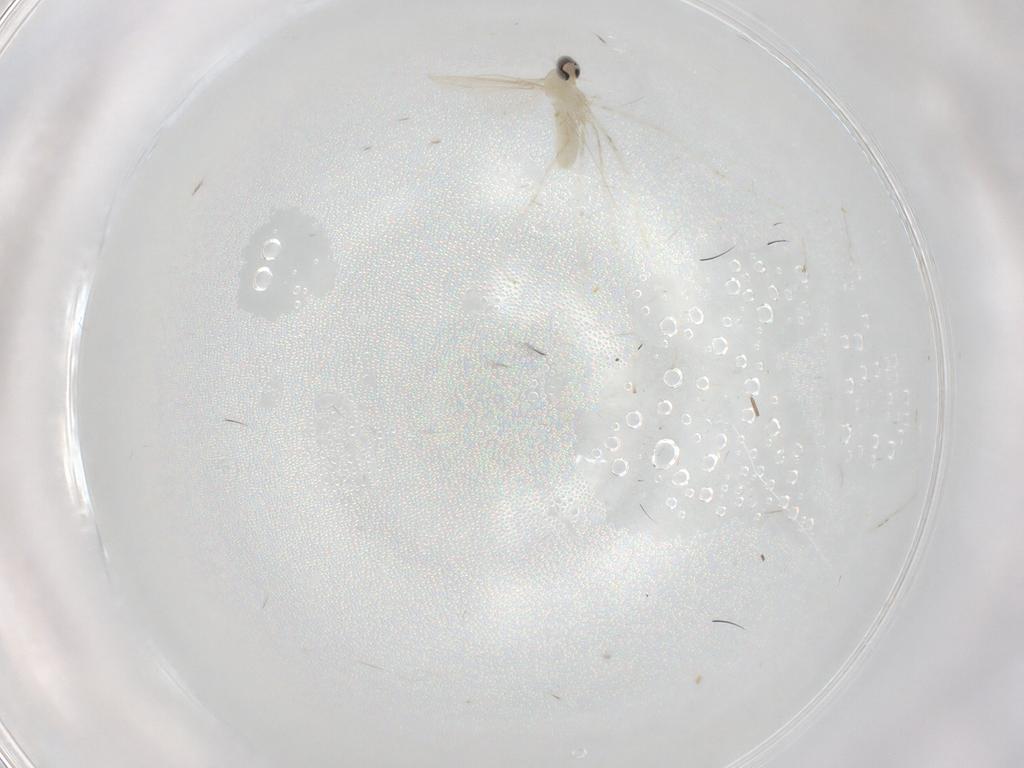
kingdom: Animalia
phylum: Arthropoda
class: Insecta
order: Diptera
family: Cecidomyiidae
